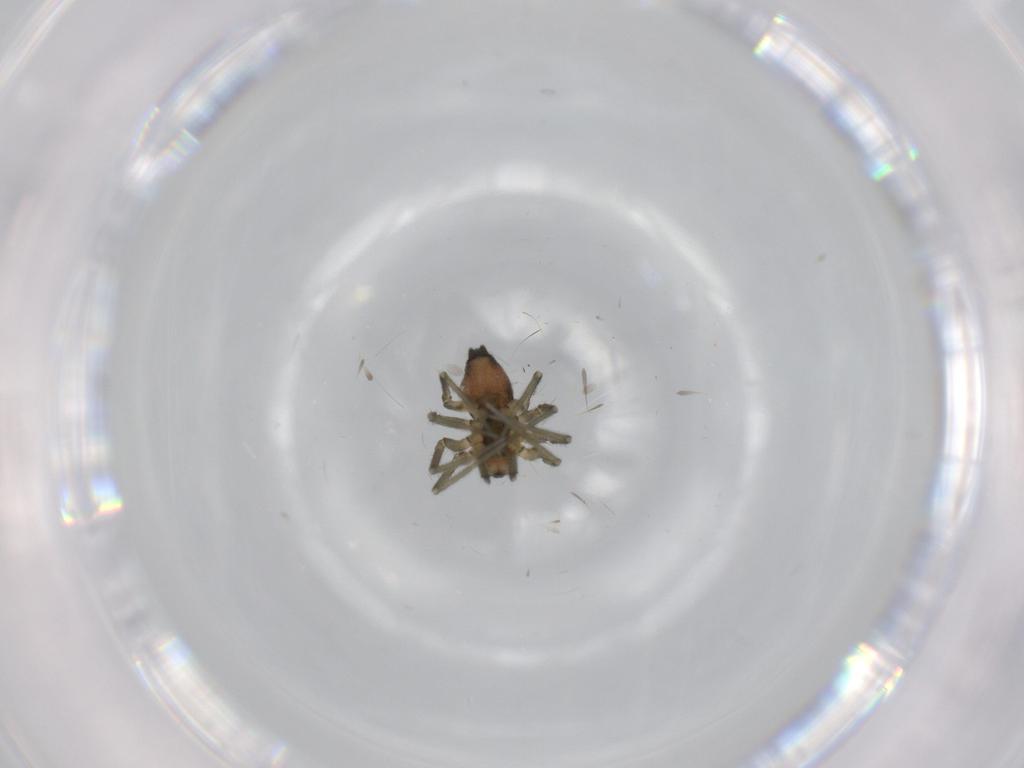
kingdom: Animalia
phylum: Arthropoda
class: Arachnida
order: Araneae
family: Linyphiidae
